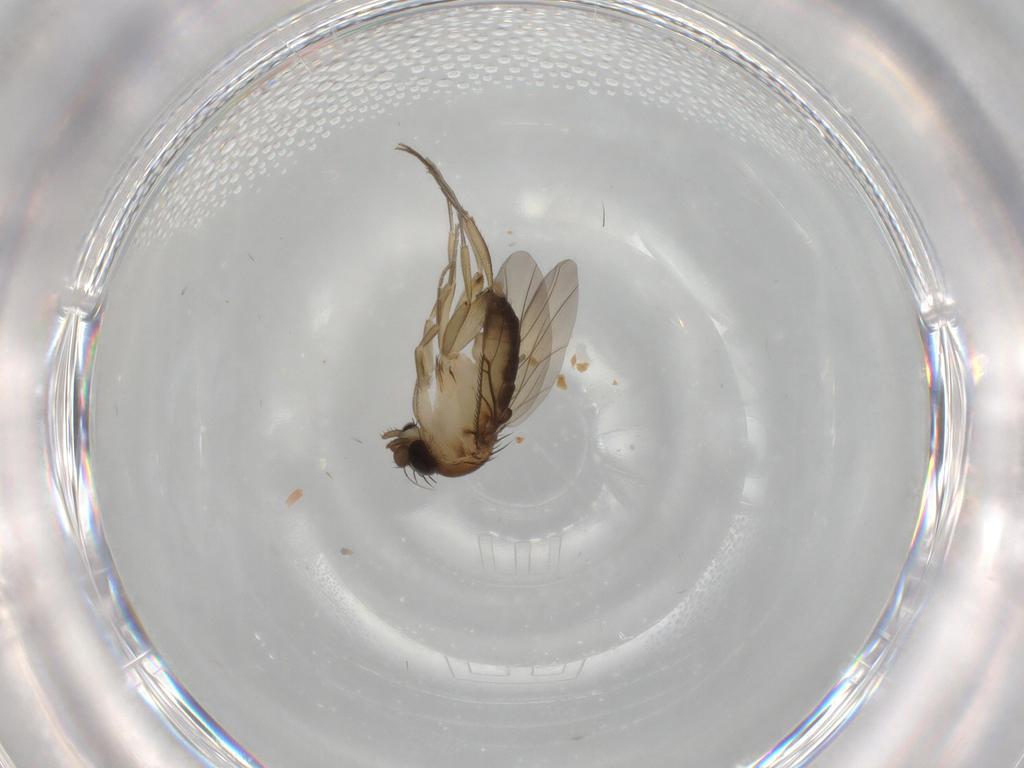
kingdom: Animalia
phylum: Arthropoda
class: Insecta
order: Diptera
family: Phoridae
